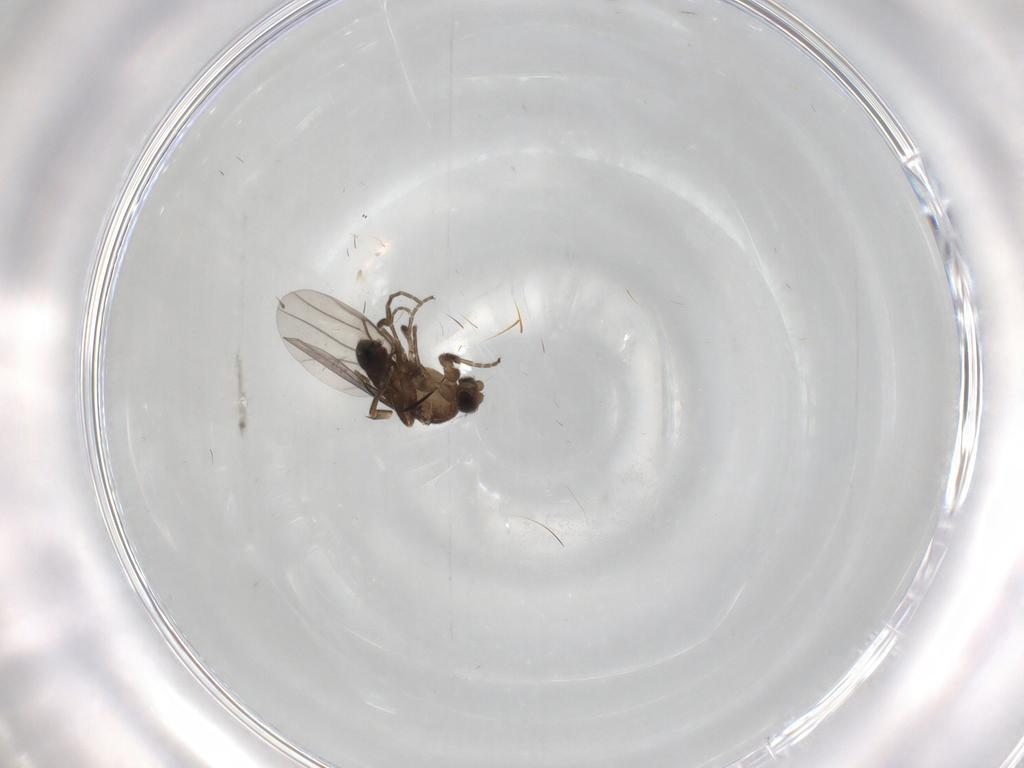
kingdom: Animalia
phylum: Arthropoda
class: Insecta
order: Diptera
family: Psychodidae
